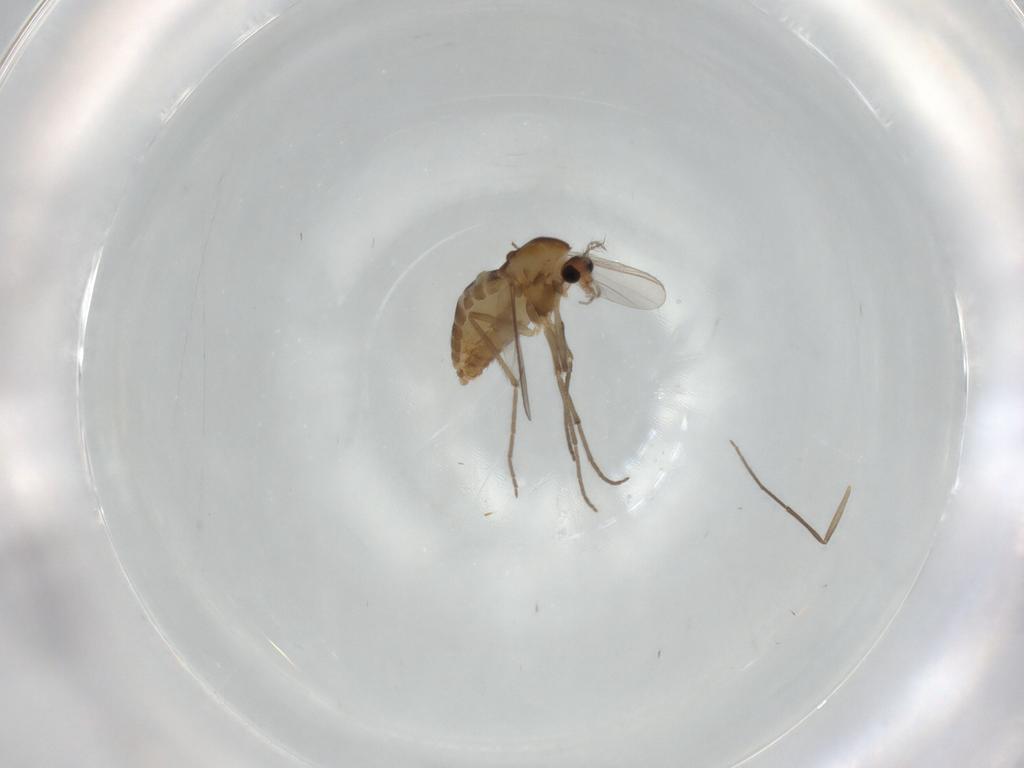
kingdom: Animalia
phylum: Arthropoda
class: Insecta
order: Diptera
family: Chironomidae
